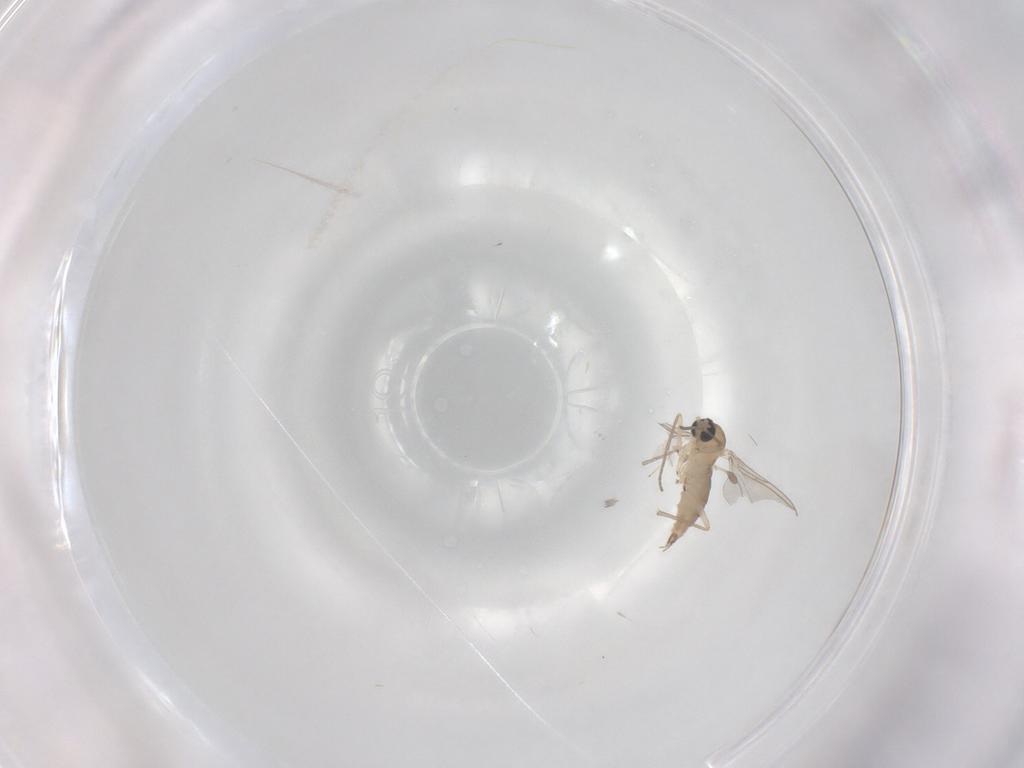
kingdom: Animalia
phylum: Arthropoda
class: Insecta
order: Diptera
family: Sciaridae
